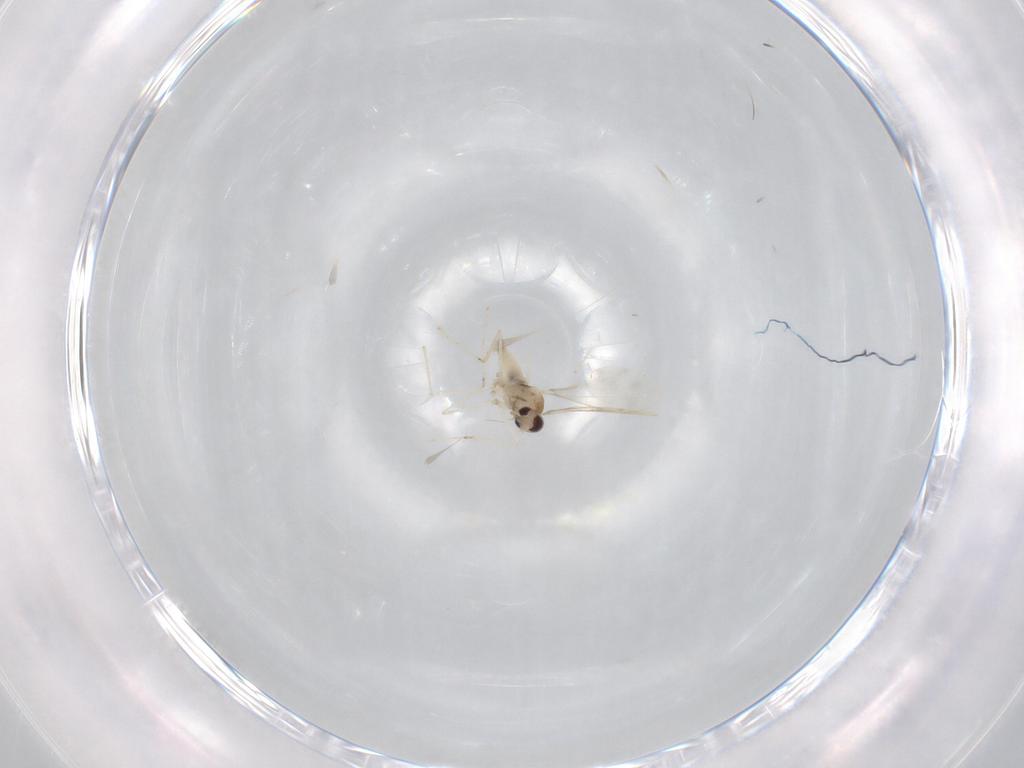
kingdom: Animalia
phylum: Arthropoda
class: Insecta
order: Diptera
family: Cecidomyiidae
